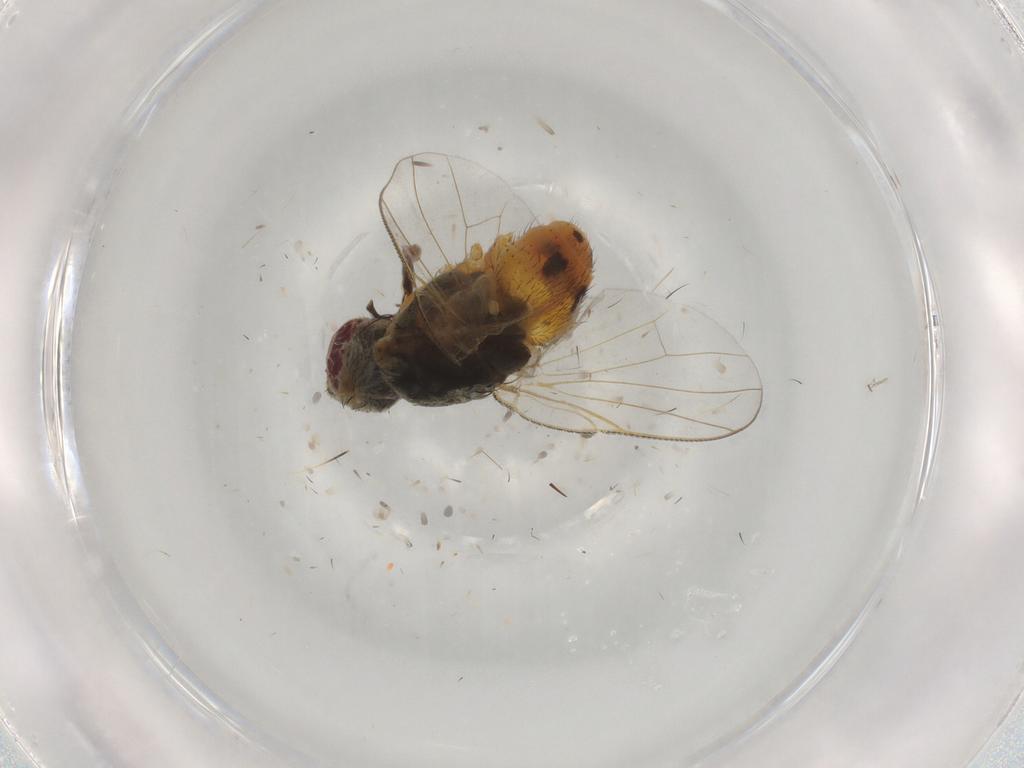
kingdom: Animalia
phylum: Arthropoda
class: Insecta
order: Diptera
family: Muscidae
